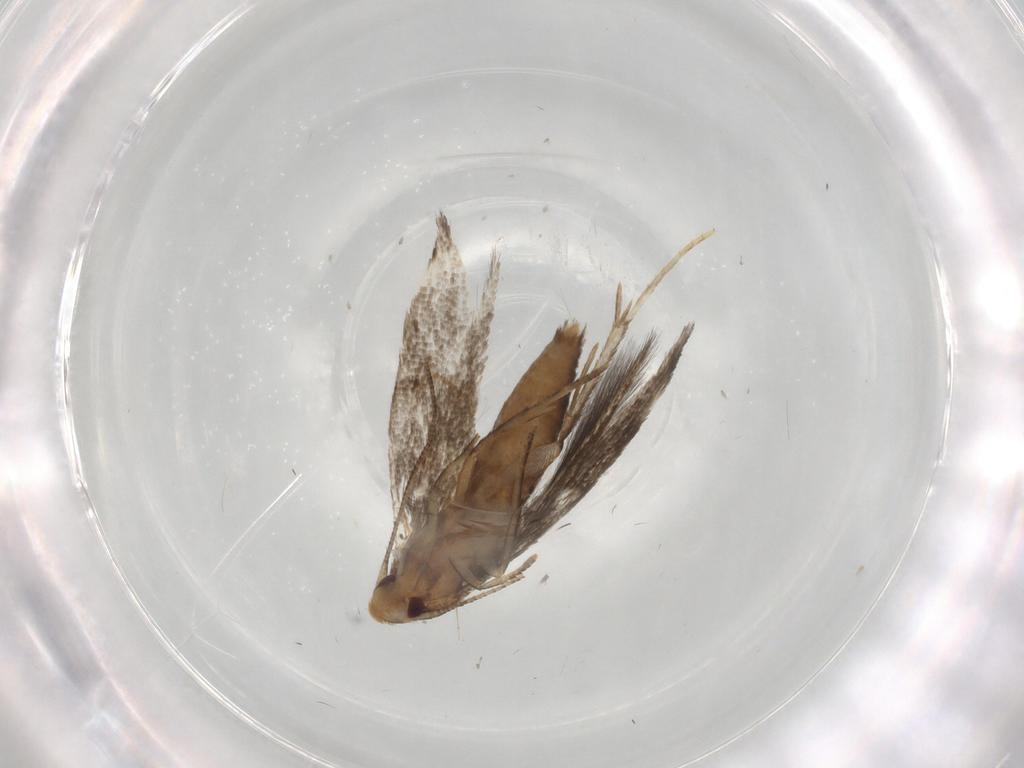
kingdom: Animalia
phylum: Arthropoda
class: Insecta
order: Lepidoptera
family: Gelechiidae
